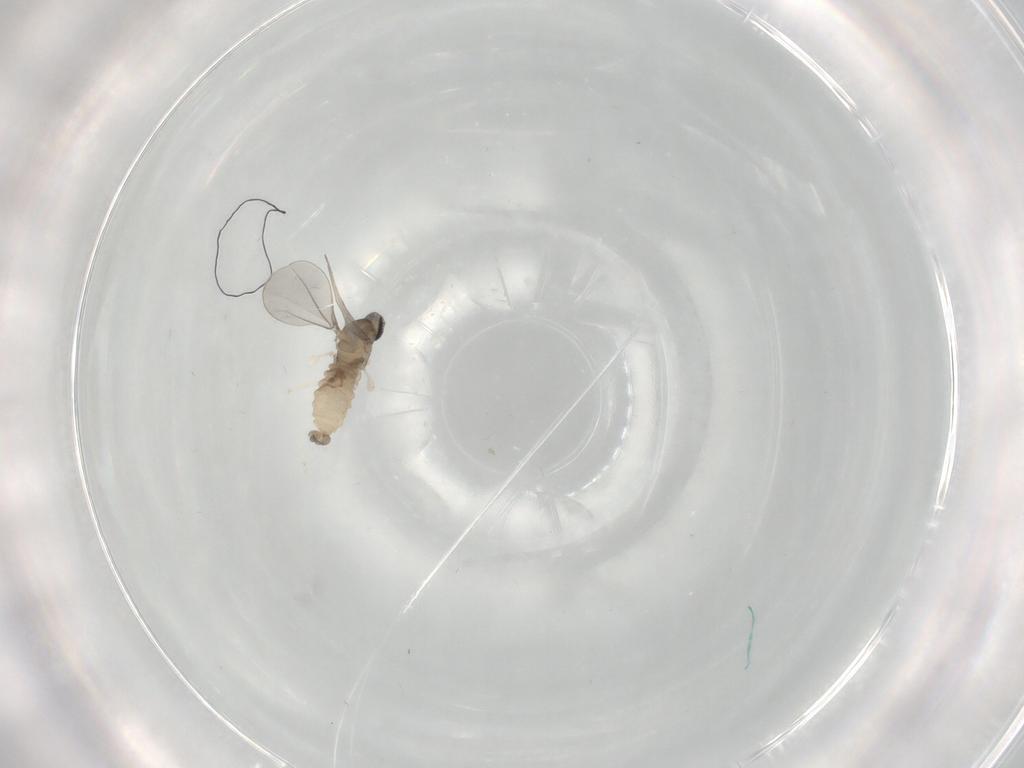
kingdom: Animalia
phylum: Arthropoda
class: Insecta
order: Diptera
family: Cecidomyiidae
